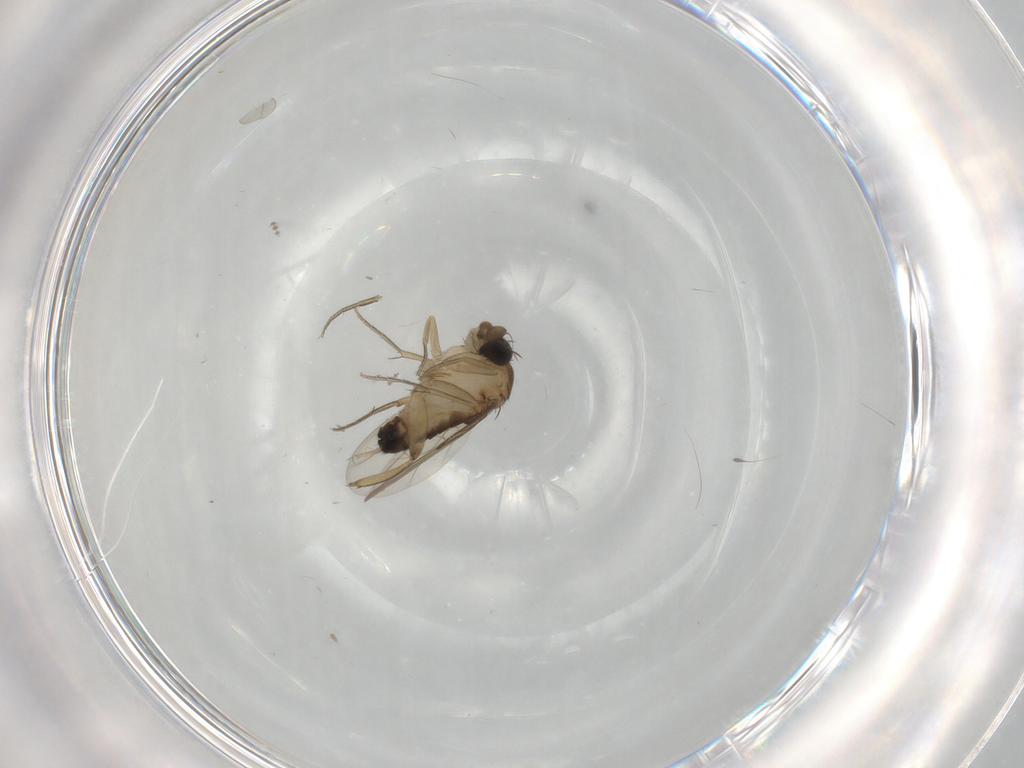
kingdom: Animalia
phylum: Arthropoda
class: Insecta
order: Diptera
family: Phoridae
